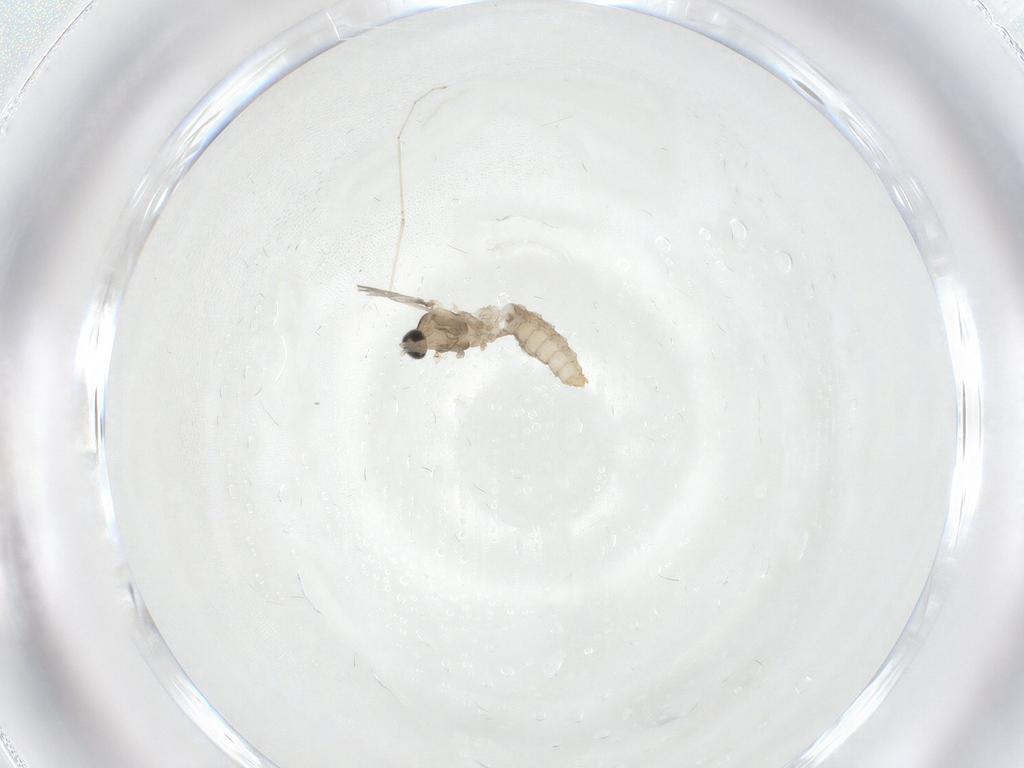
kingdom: Animalia
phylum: Arthropoda
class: Insecta
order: Diptera
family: Cecidomyiidae
